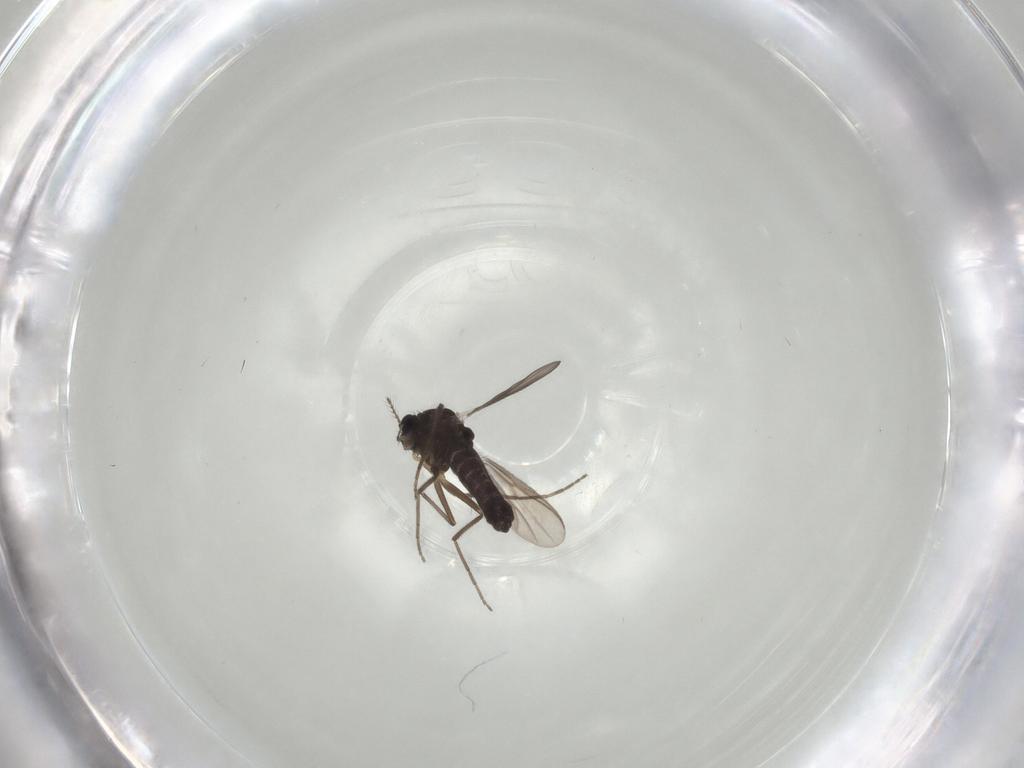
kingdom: Animalia
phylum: Arthropoda
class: Insecta
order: Diptera
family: Chironomidae
